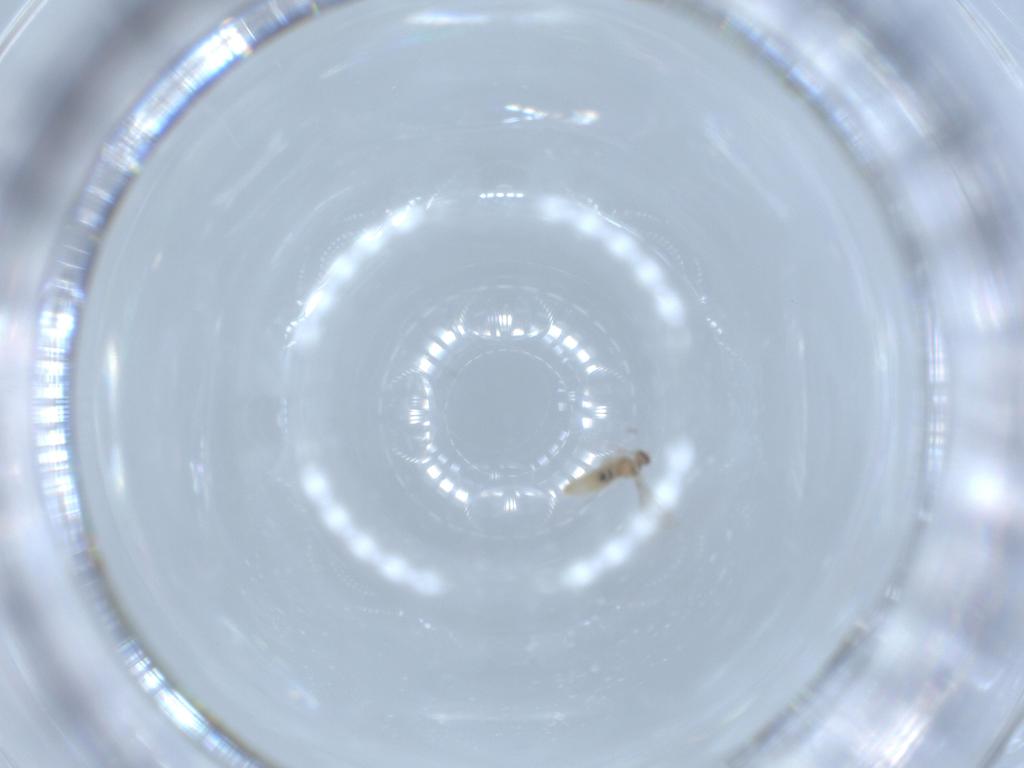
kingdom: Animalia
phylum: Arthropoda
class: Insecta
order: Diptera
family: Cecidomyiidae
